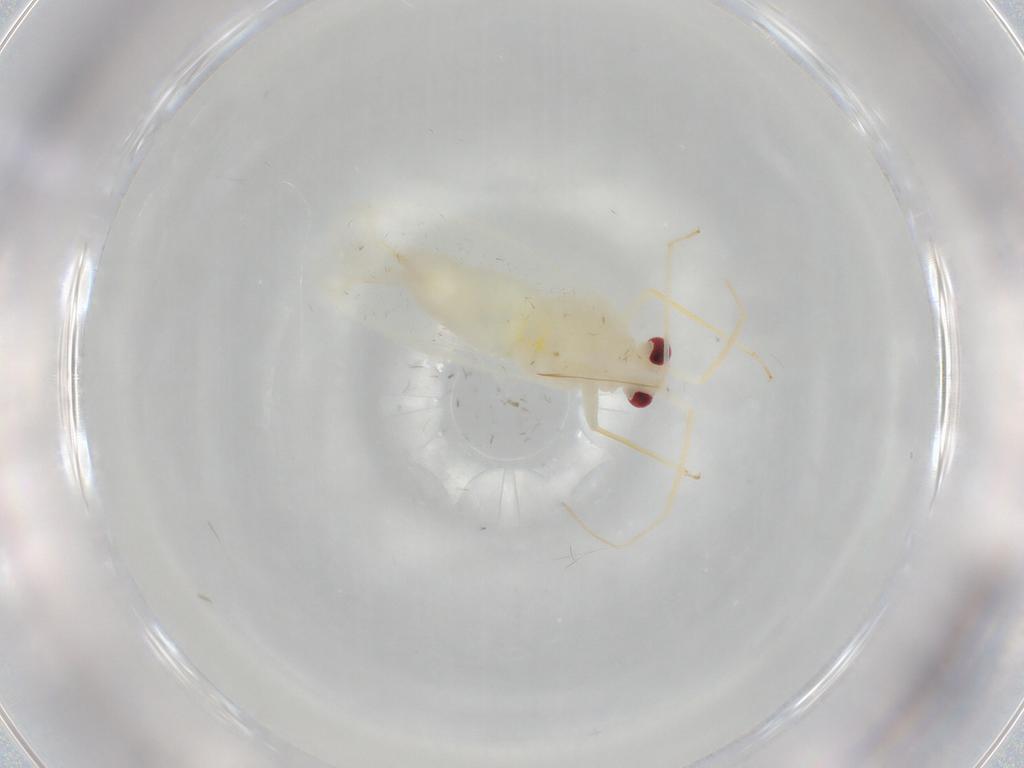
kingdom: Animalia
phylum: Arthropoda
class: Insecta
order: Hemiptera
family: Miridae
